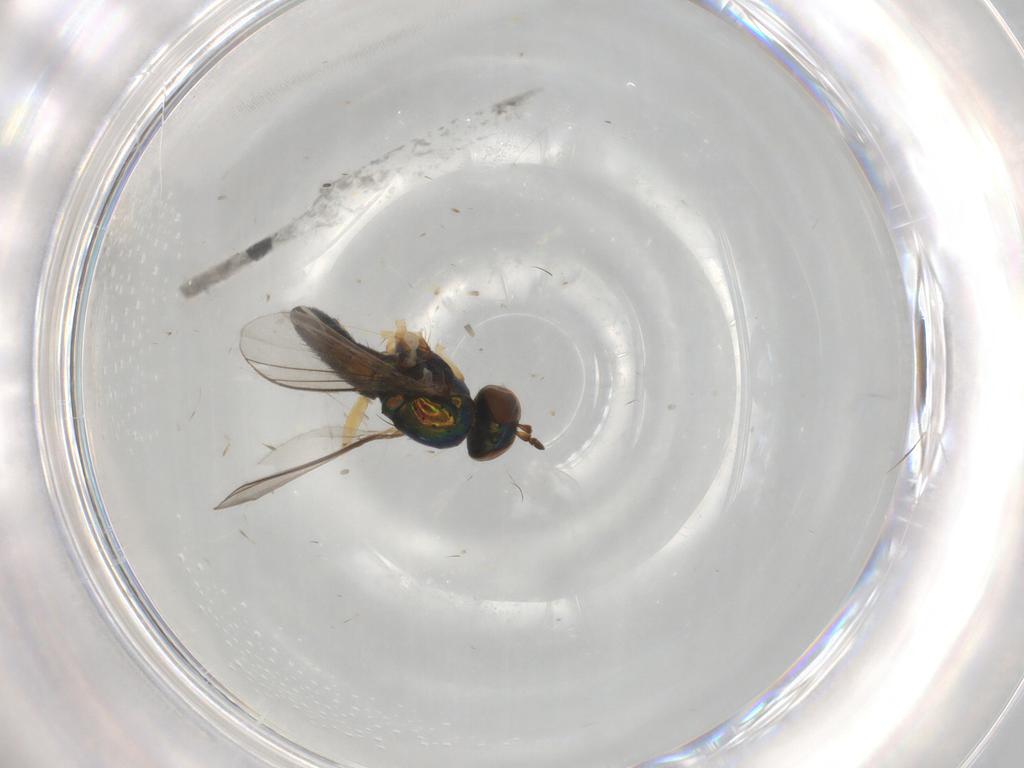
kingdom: Animalia
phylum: Arthropoda
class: Insecta
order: Diptera
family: Dolichopodidae
